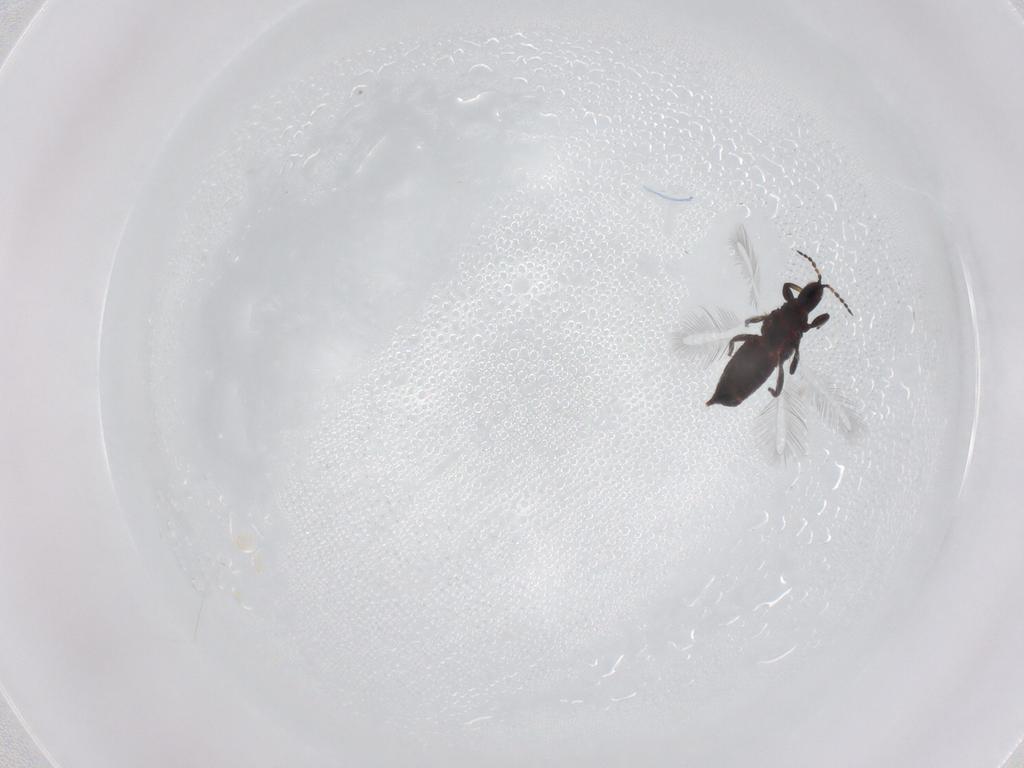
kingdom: Animalia
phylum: Arthropoda
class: Insecta
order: Thysanoptera
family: Phlaeothripidae
